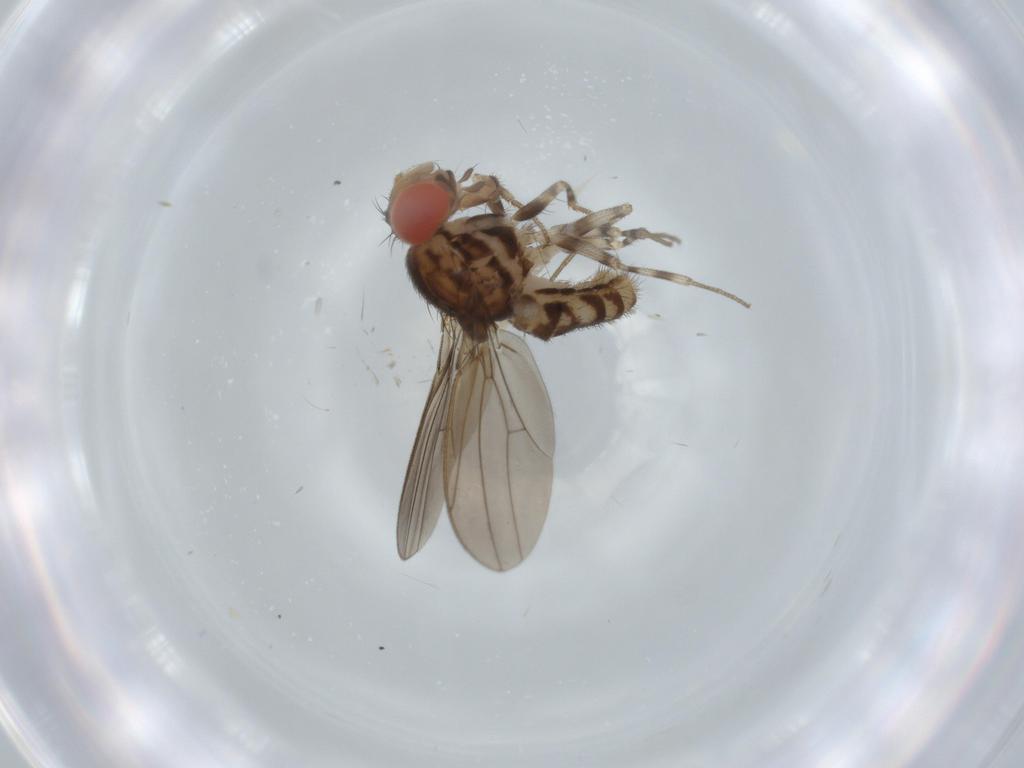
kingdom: Animalia
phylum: Arthropoda
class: Insecta
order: Diptera
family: Drosophilidae
